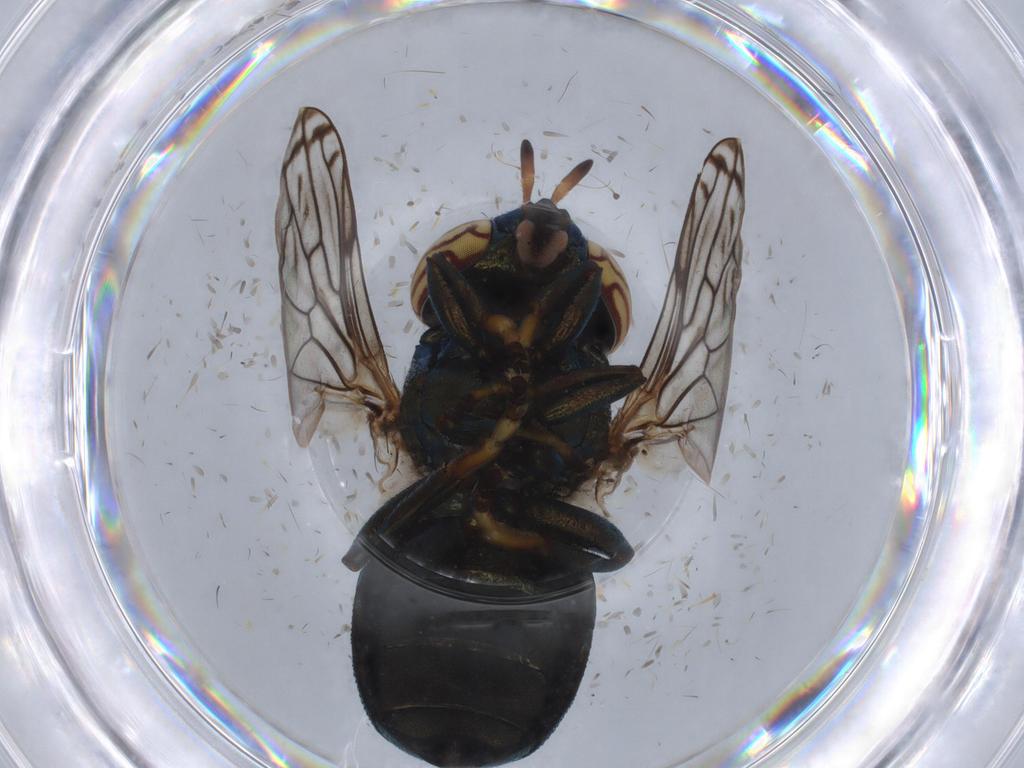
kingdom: Animalia
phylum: Arthropoda
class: Insecta
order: Diptera
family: Syrphidae
